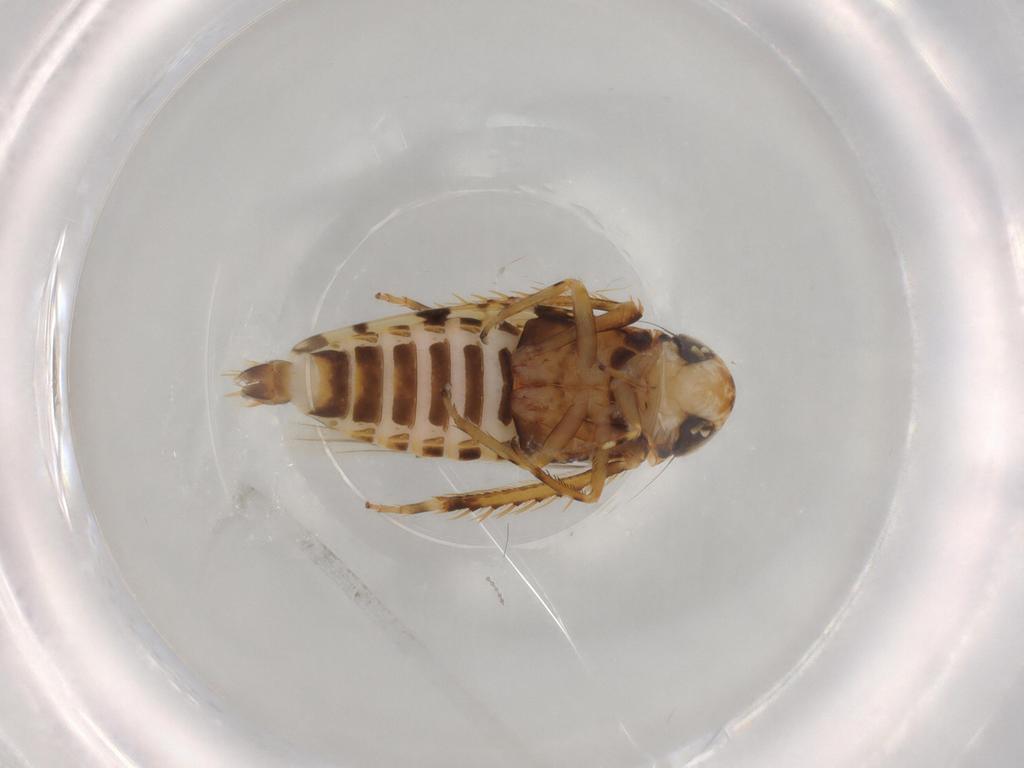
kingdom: Animalia
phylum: Arthropoda
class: Insecta
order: Hemiptera
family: Cicadellidae
